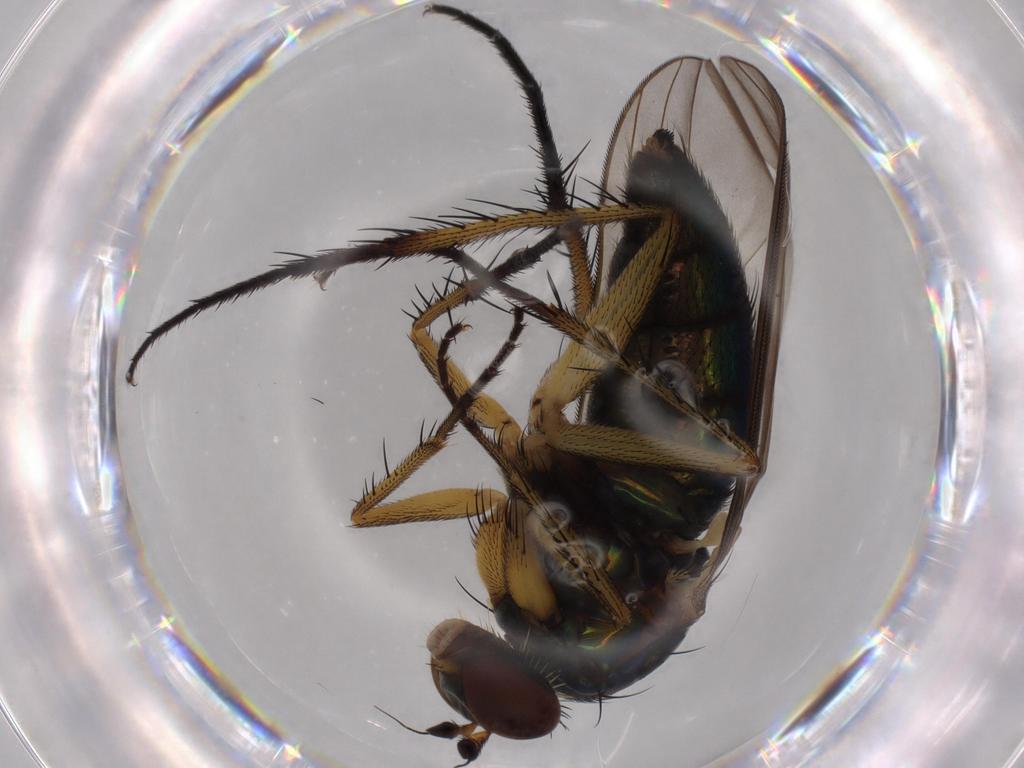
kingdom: Animalia
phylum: Arthropoda
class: Insecta
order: Diptera
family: Dolichopodidae
